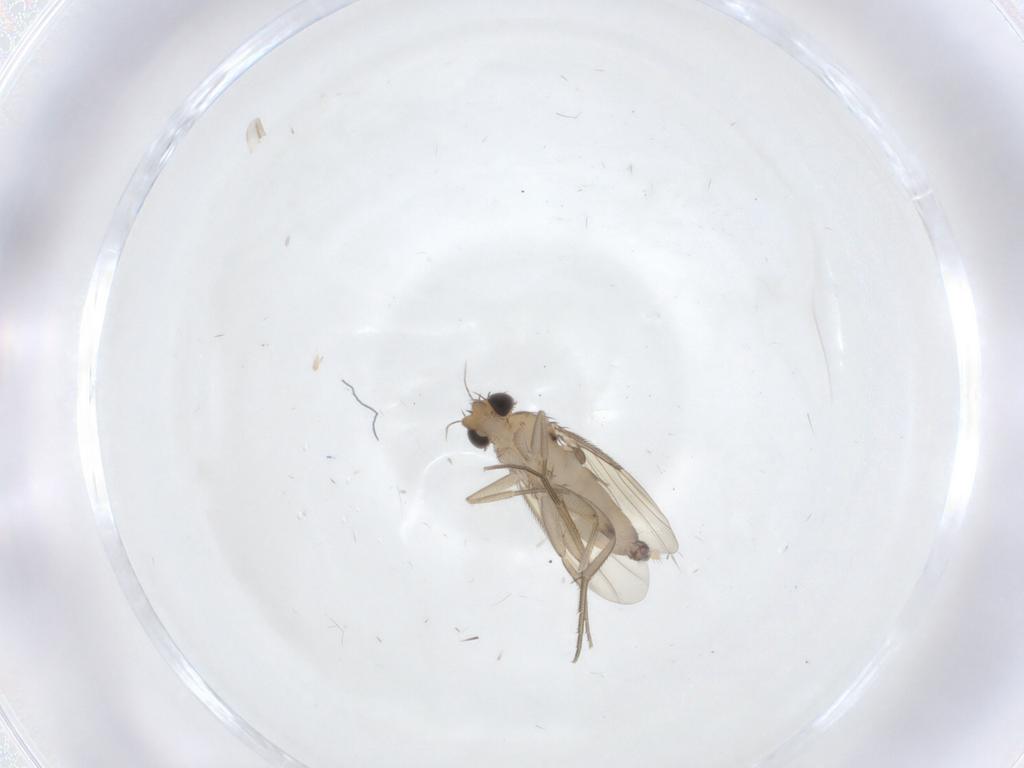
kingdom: Animalia
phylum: Arthropoda
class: Insecta
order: Diptera
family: Phoridae
